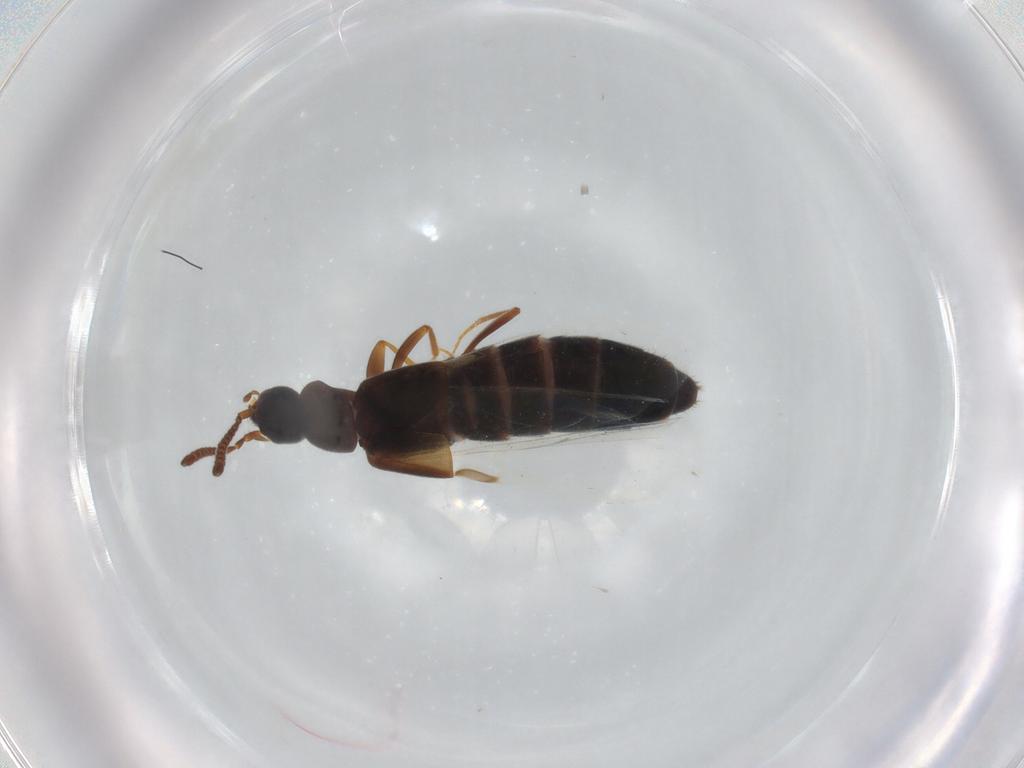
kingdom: Animalia
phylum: Arthropoda
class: Insecta
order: Coleoptera
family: Staphylinidae
